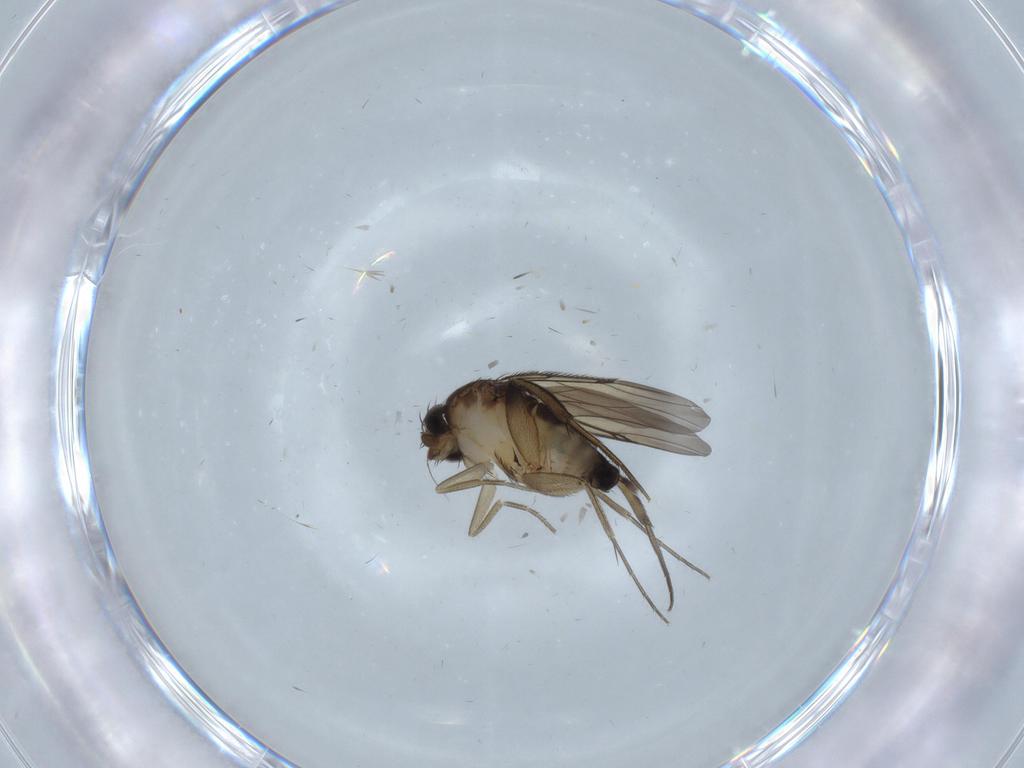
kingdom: Animalia
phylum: Arthropoda
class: Insecta
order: Diptera
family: Phoridae
